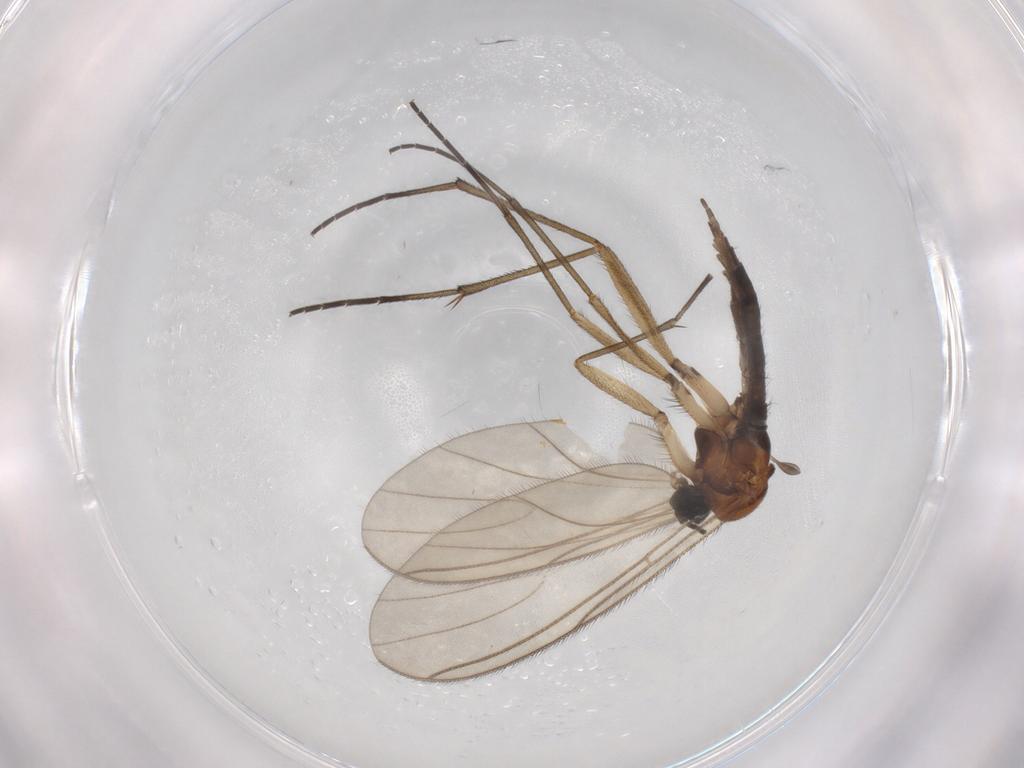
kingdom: Animalia
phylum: Arthropoda
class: Insecta
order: Diptera
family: Sciaridae
